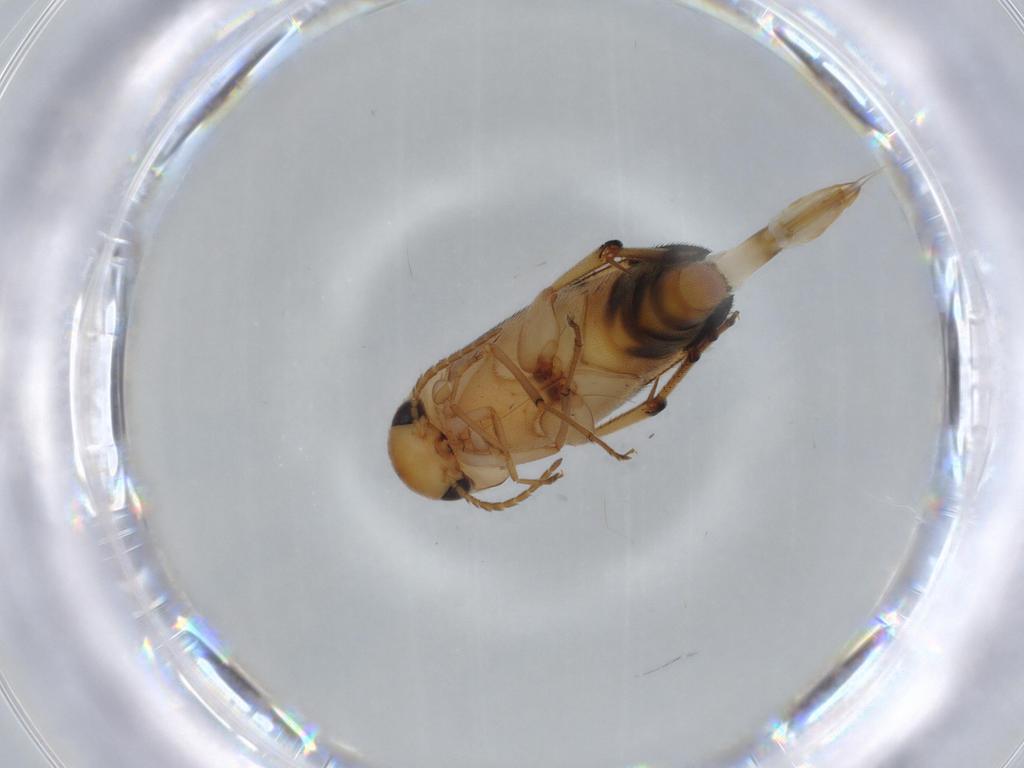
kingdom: Animalia
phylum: Arthropoda
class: Insecta
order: Coleoptera
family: Mordellidae
